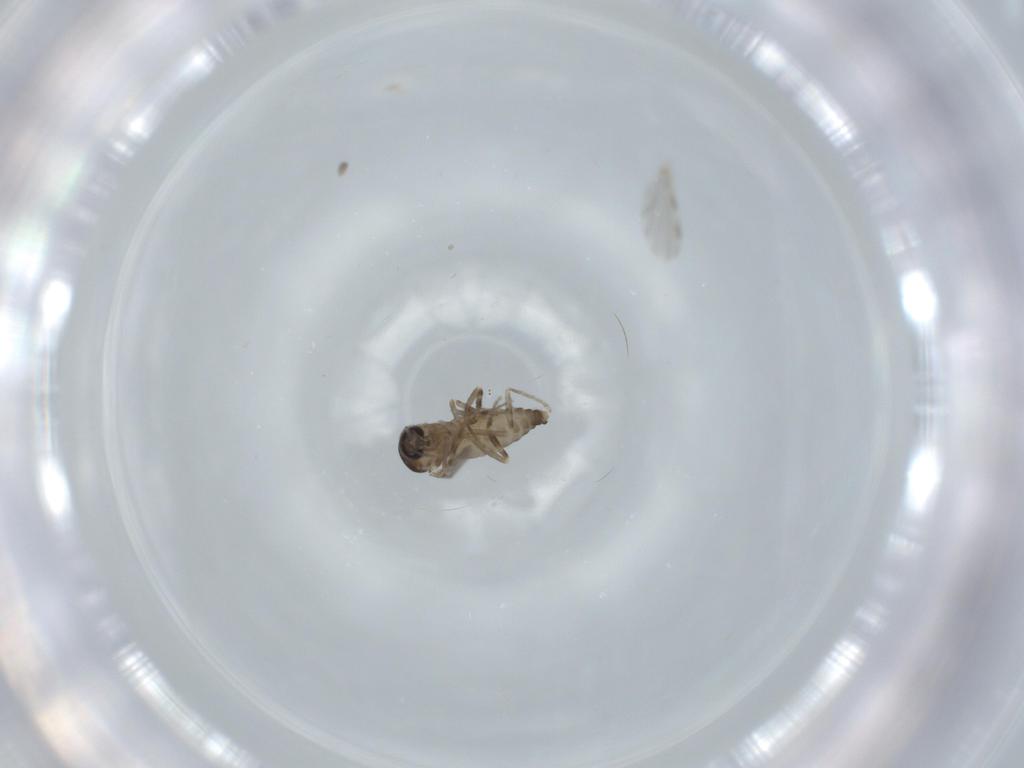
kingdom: Animalia
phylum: Arthropoda
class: Insecta
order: Diptera
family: Ceratopogonidae
